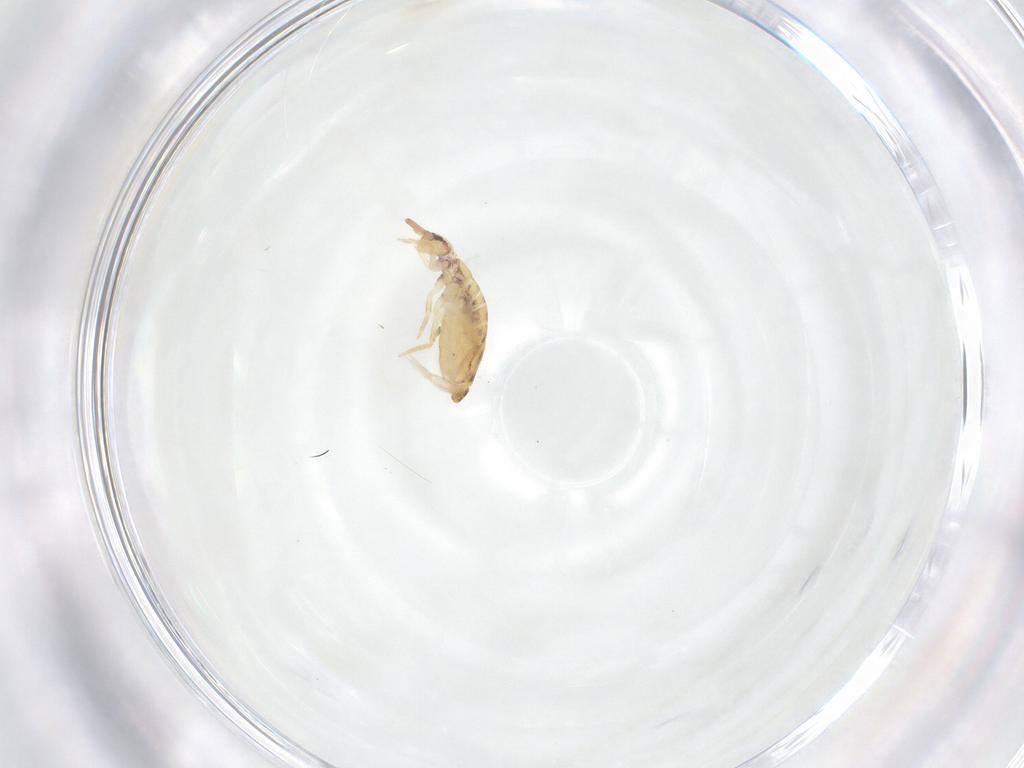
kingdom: Animalia
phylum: Arthropoda
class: Collembola
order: Entomobryomorpha
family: Entomobryidae
